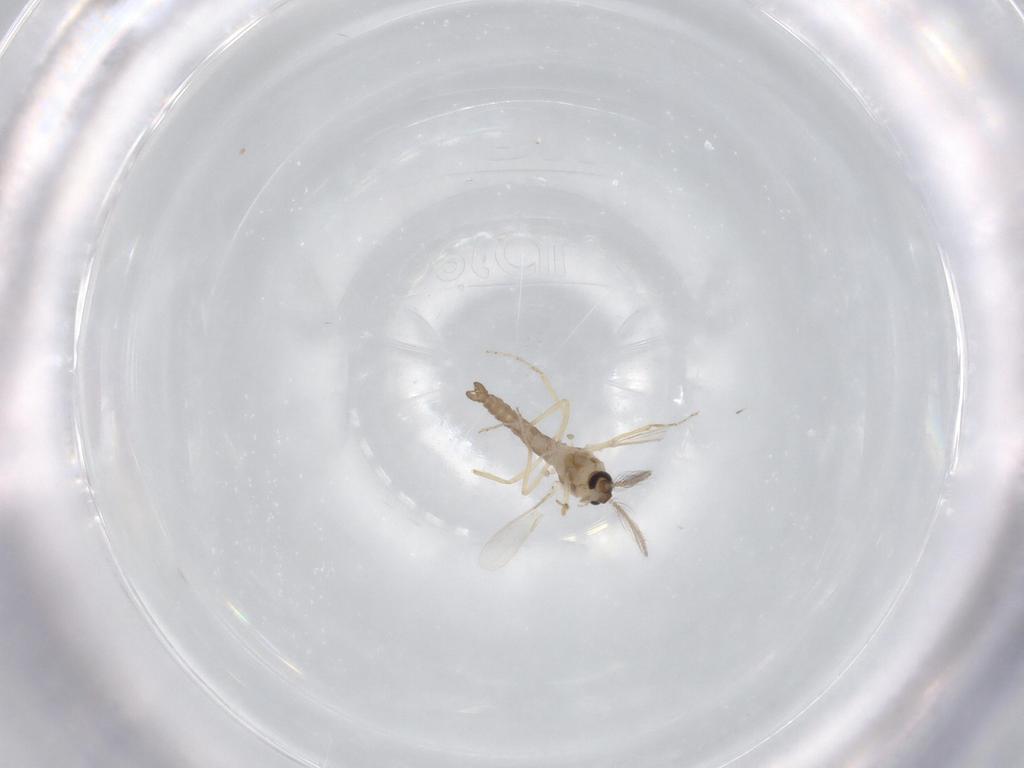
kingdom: Animalia
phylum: Arthropoda
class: Insecta
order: Diptera
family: Ceratopogonidae
